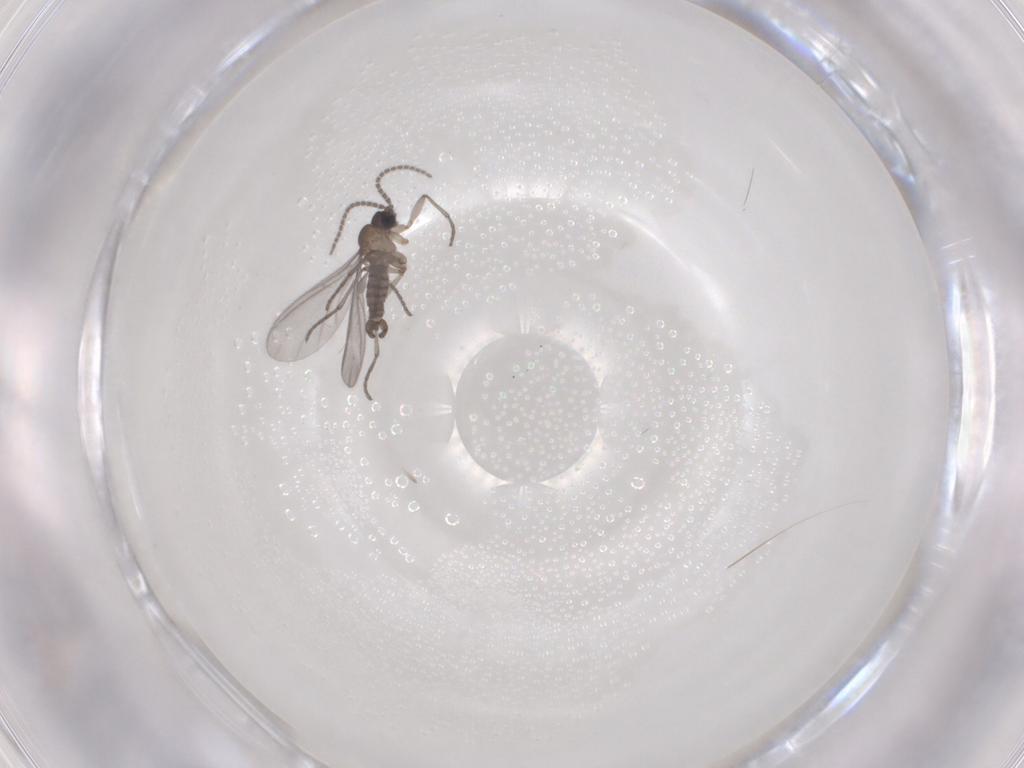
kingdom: Animalia
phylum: Arthropoda
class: Insecta
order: Diptera
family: Sciaridae
